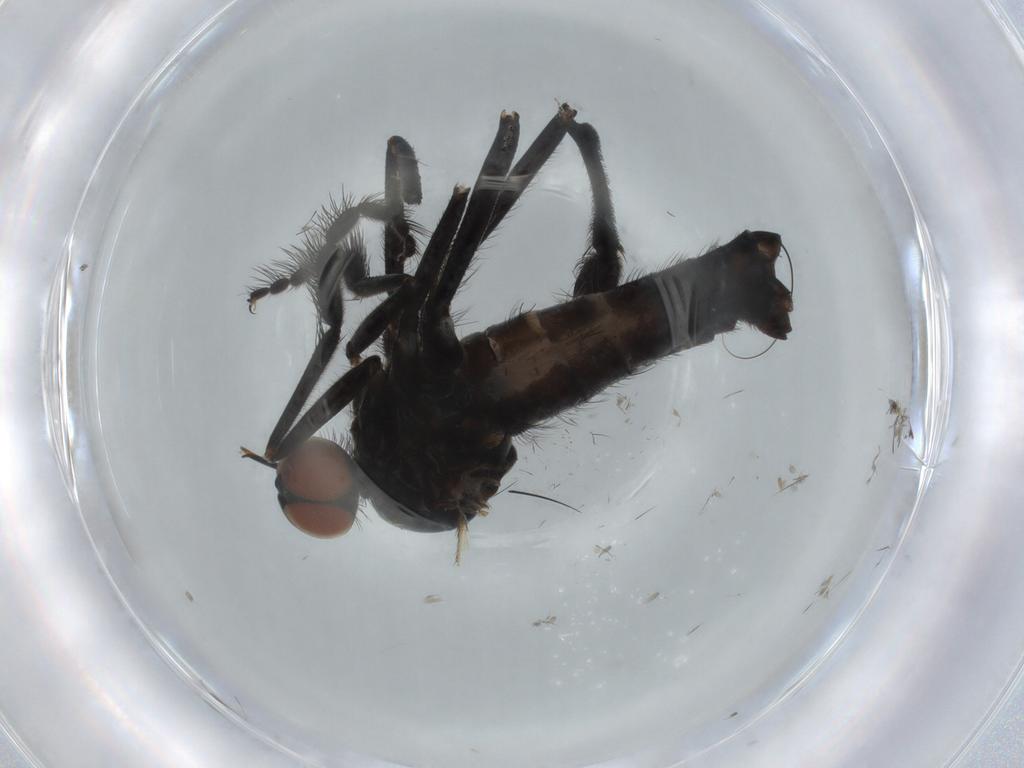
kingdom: Animalia
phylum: Arthropoda
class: Insecta
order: Diptera
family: Empididae
